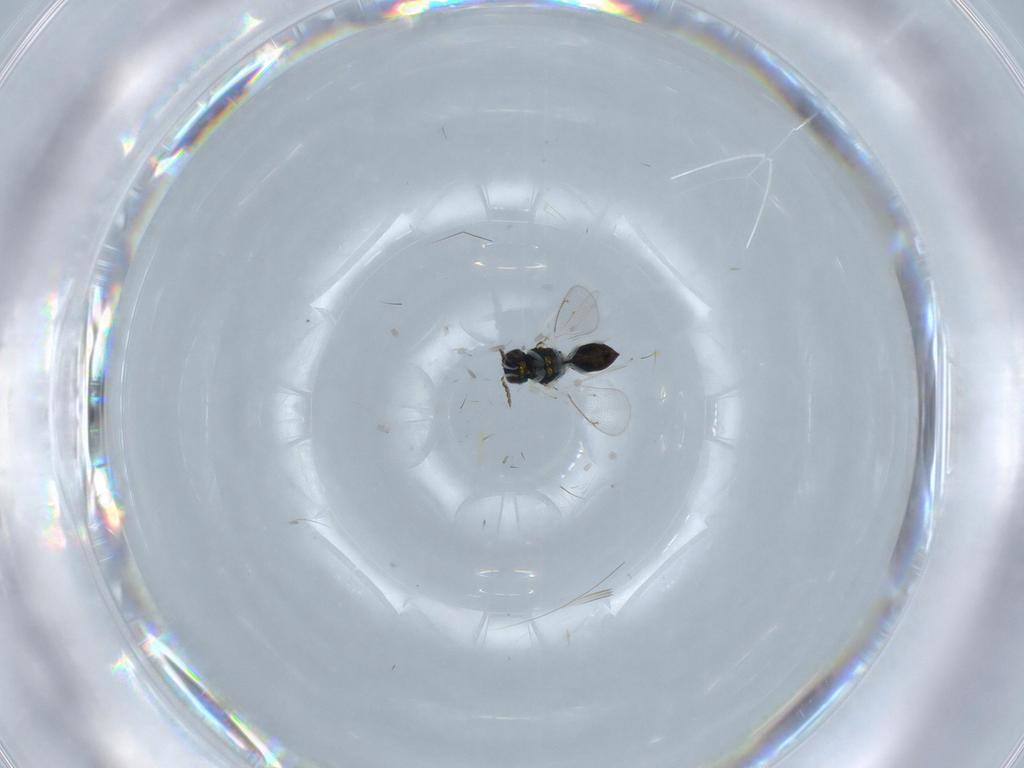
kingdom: Animalia
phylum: Arthropoda
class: Insecta
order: Hymenoptera
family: Eulophidae
